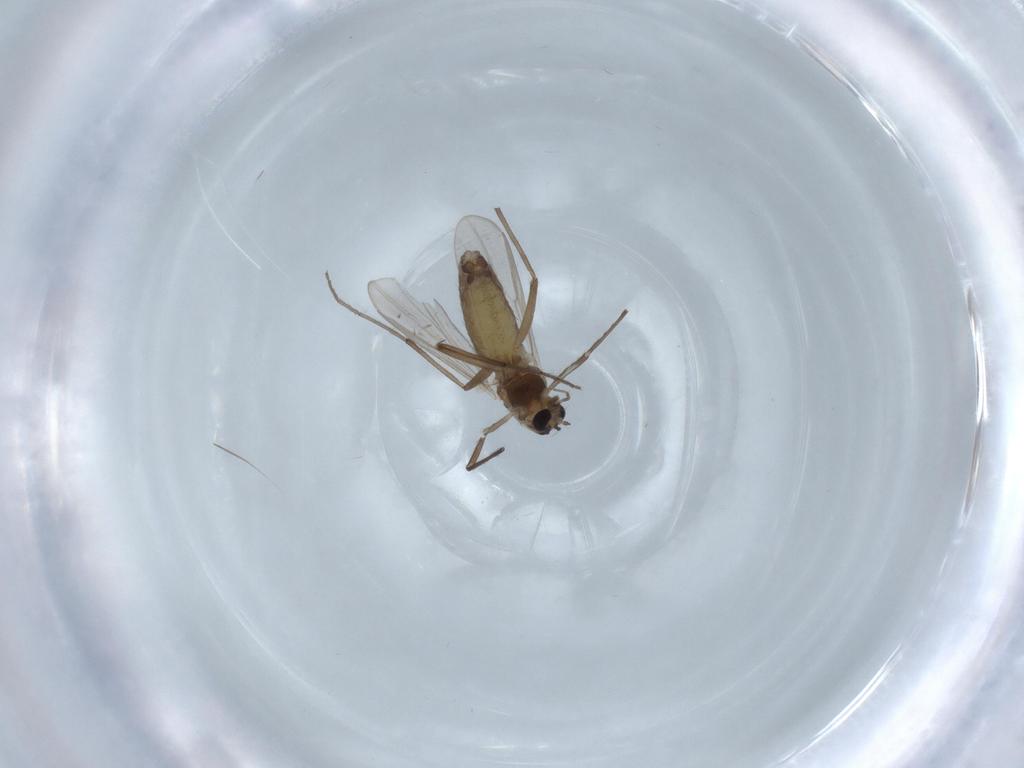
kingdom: Animalia
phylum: Arthropoda
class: Insecta
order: Diptera
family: Chironomidae
